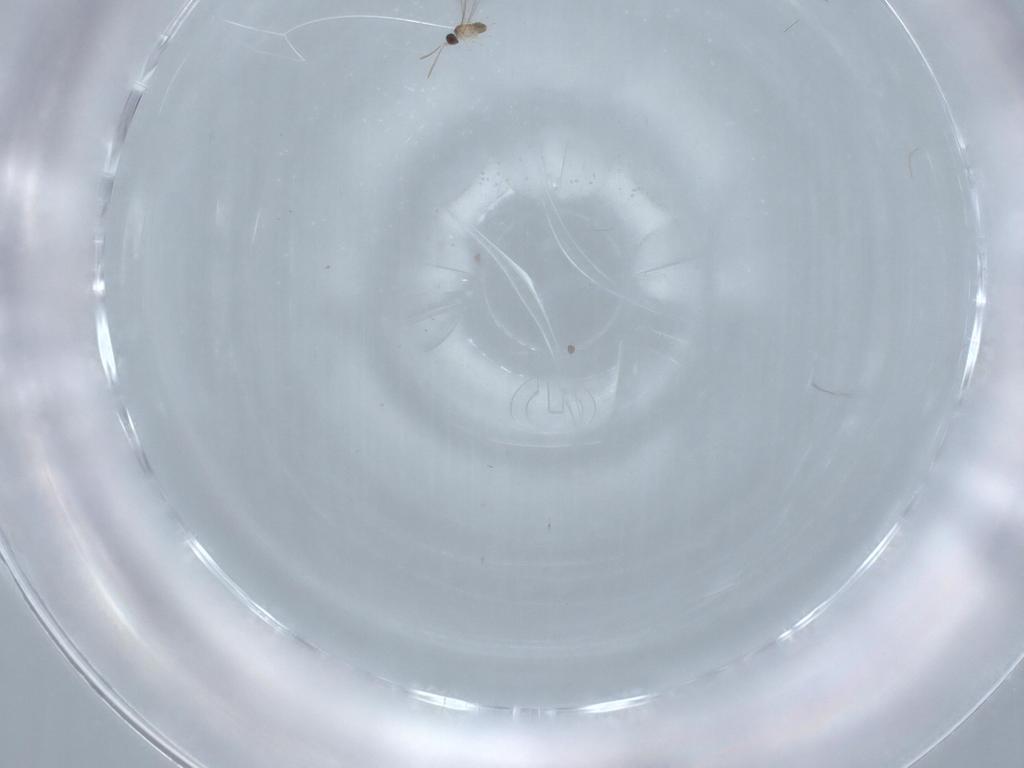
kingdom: Animalia
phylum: Arthropoda
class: Insecta
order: Hymenoptera
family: Aphelinidae
